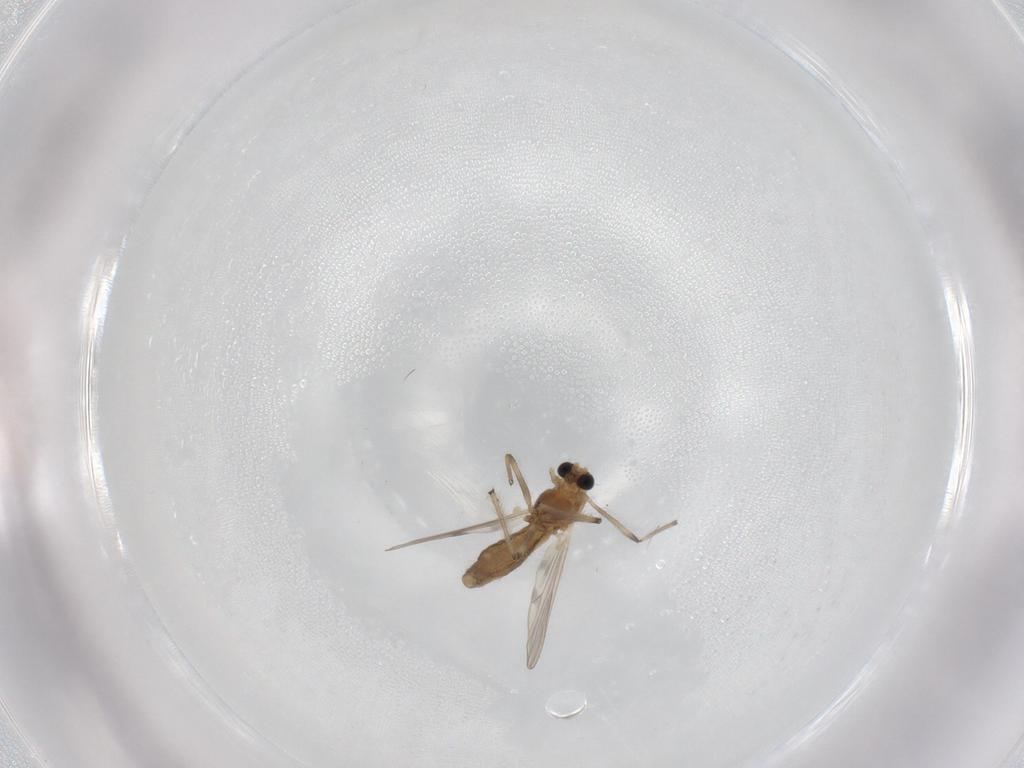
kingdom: Animalia
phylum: Arthropoda
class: Insecta
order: Diptera
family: Chironomidae
